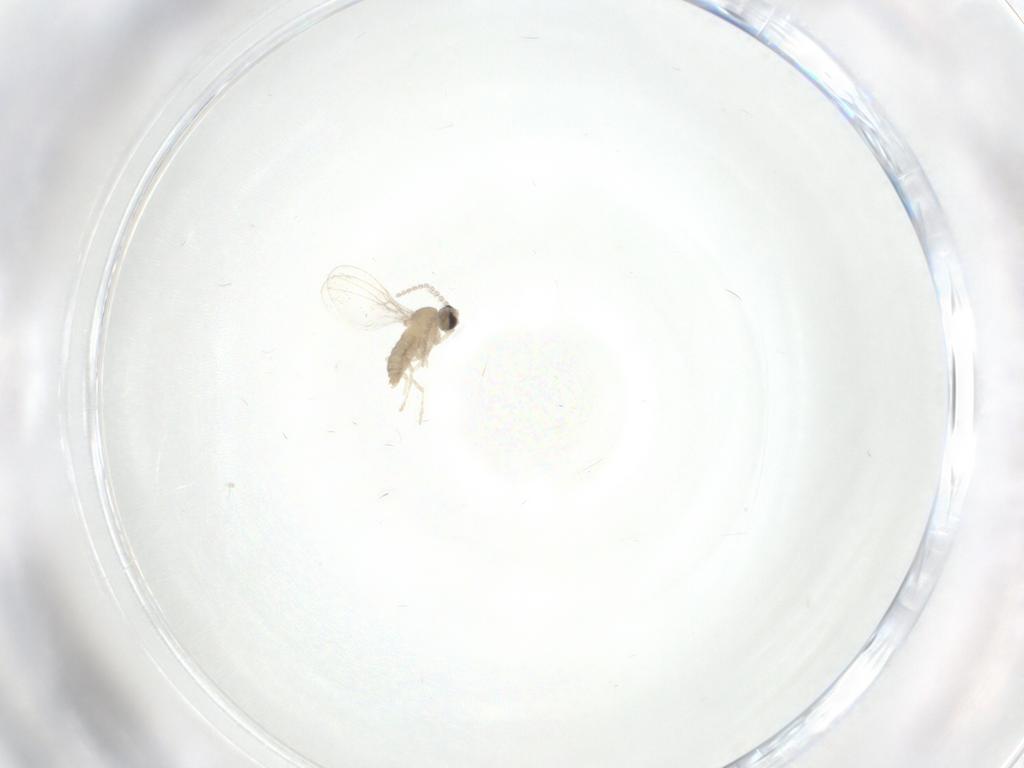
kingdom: Animalia
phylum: Arthropoda
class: Insecta
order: Diptera
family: Cecidomyiidae
